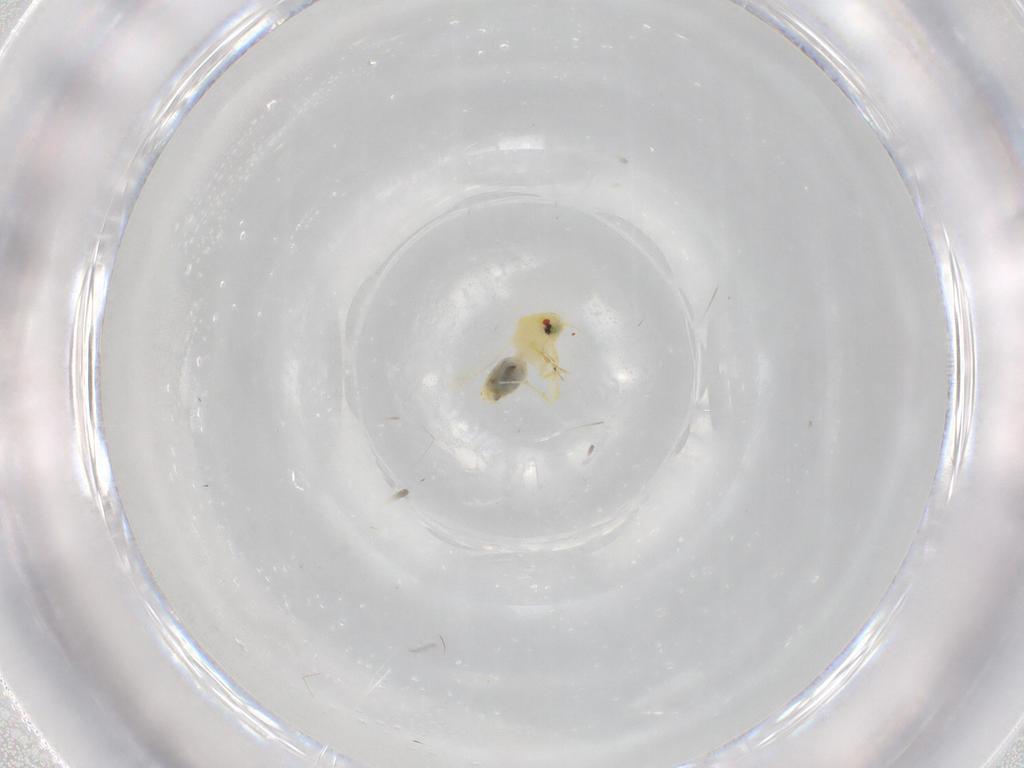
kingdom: Animalia
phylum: Arthropoda
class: Insecta
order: Hemiptera
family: Aleyrodidae
